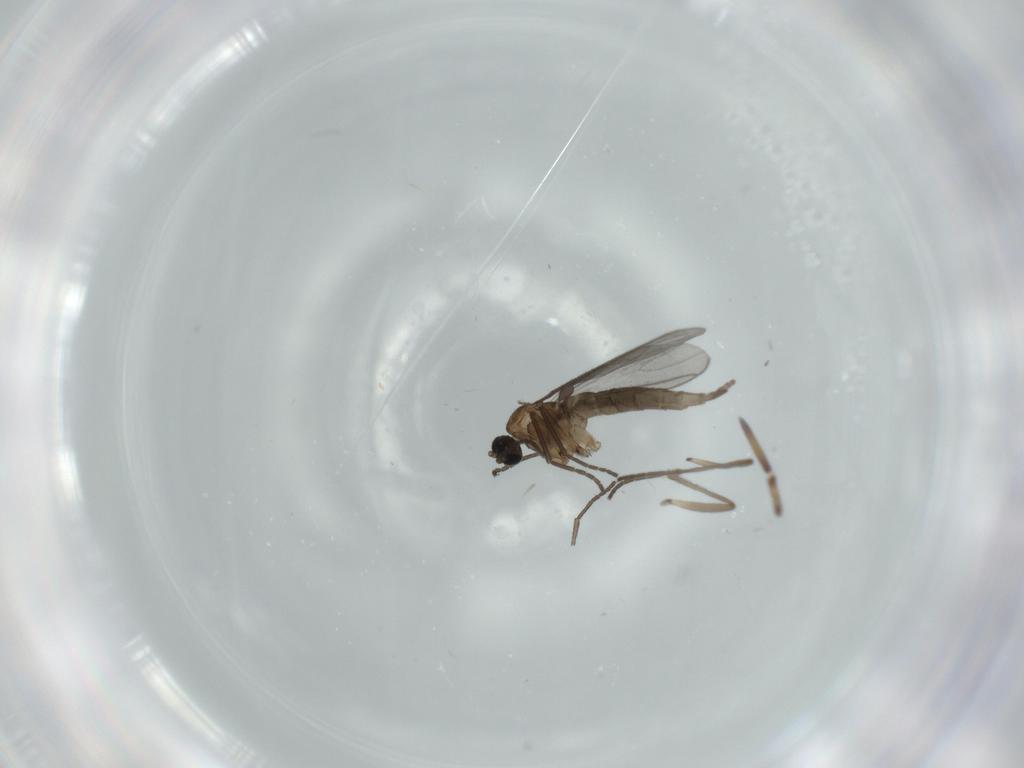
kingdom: Animalia
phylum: Arthropoda
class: Insecta
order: Diptera
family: Sciaridae
